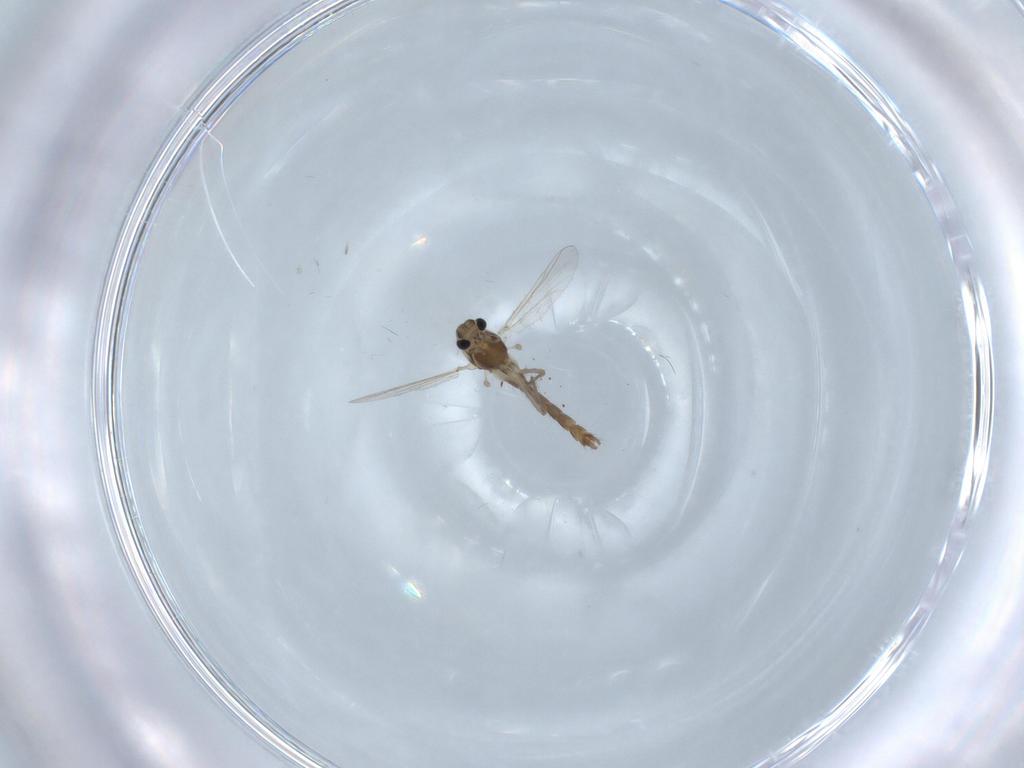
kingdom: Animalia
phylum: Arthropoda
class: Insecta
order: Diptera
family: Chironomidae
